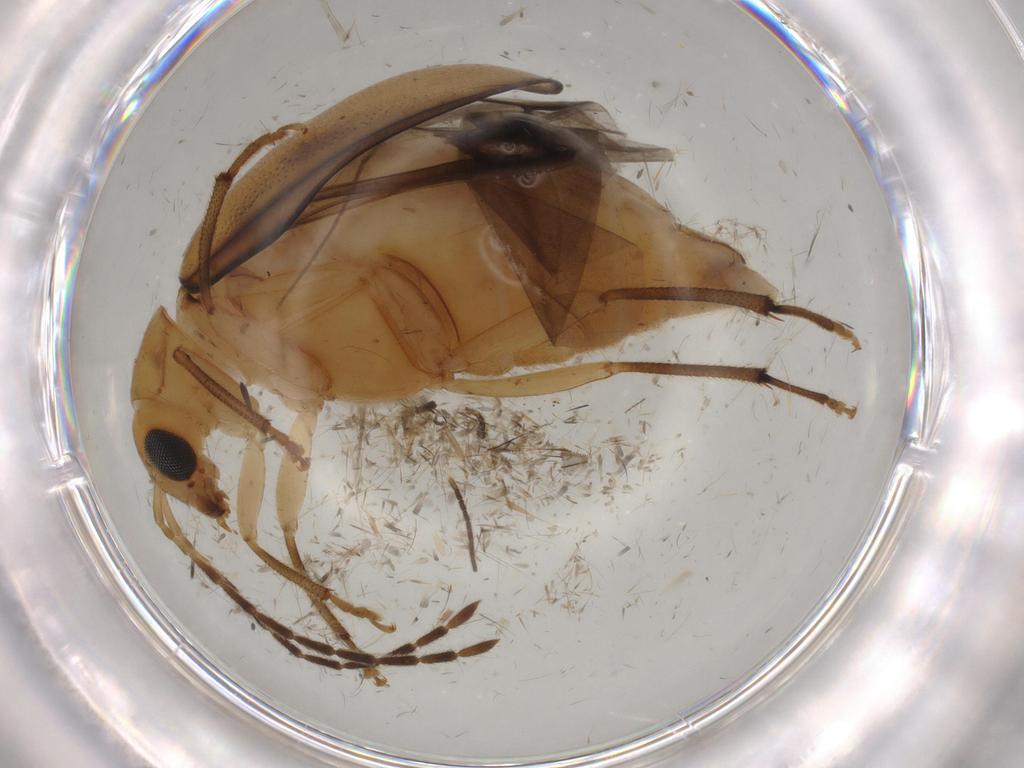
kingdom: Animalia
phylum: Arthropoda
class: Insecta
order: Coleoptera
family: Chrysomelidae
